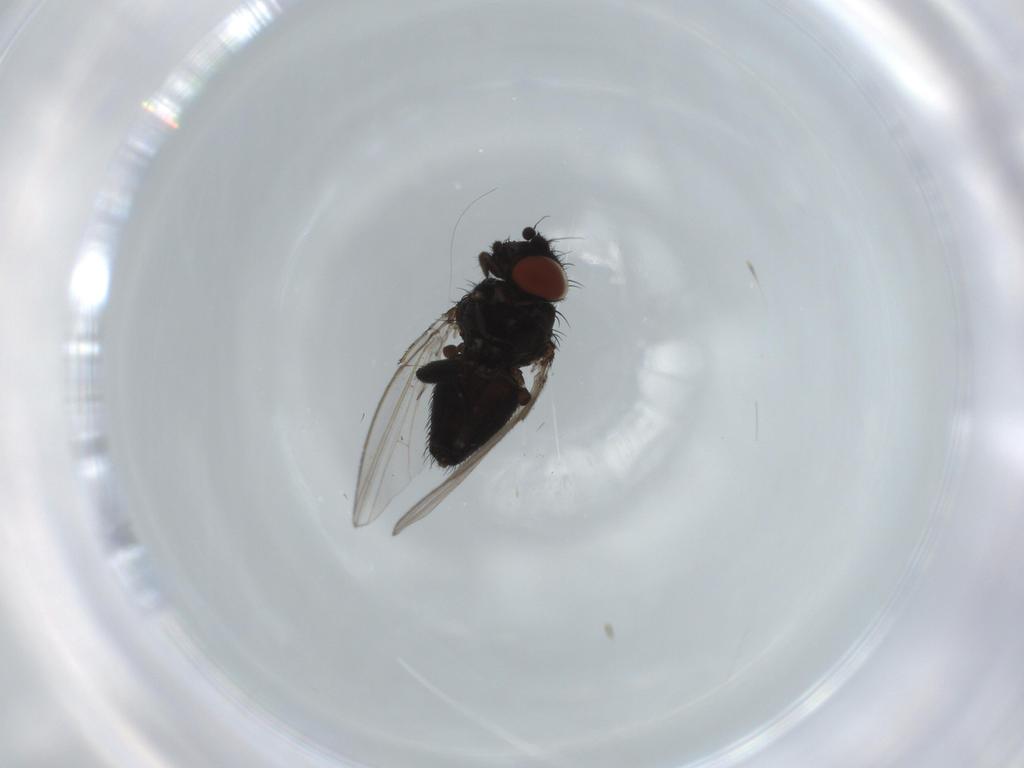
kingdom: Animalia
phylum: Arthropoda
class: Insecta
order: Diptera
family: Milichiidae
